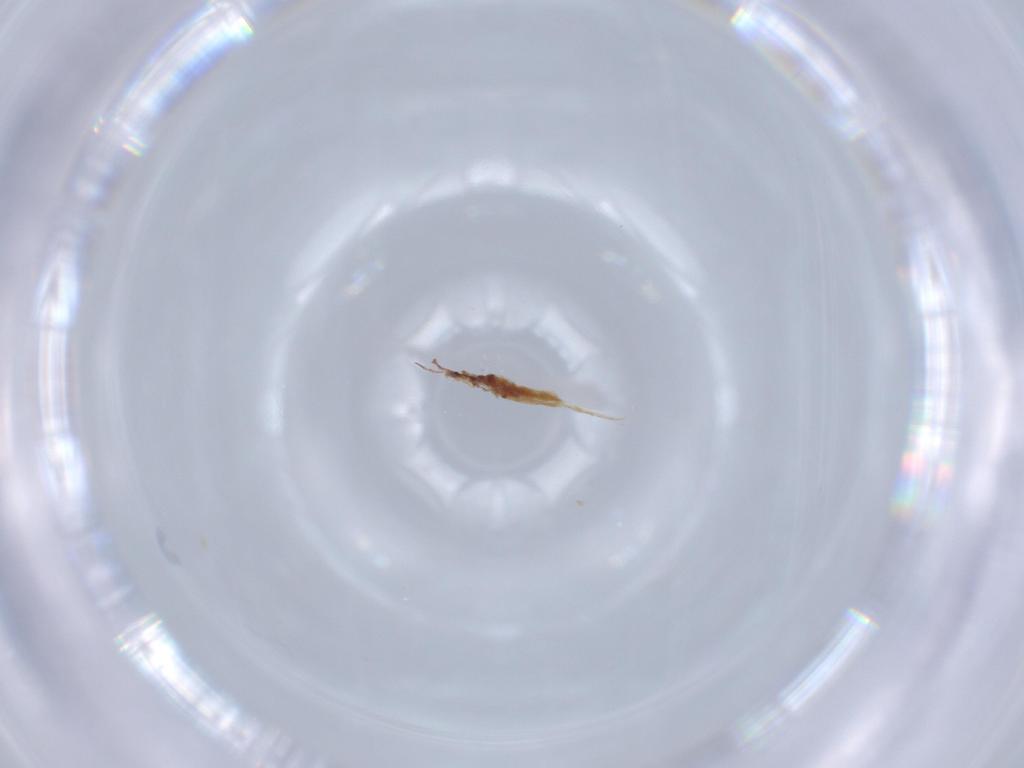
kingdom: Animalia
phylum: Arthropoda
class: Collembola
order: Entomobryomorpha
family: Entomobryidae
